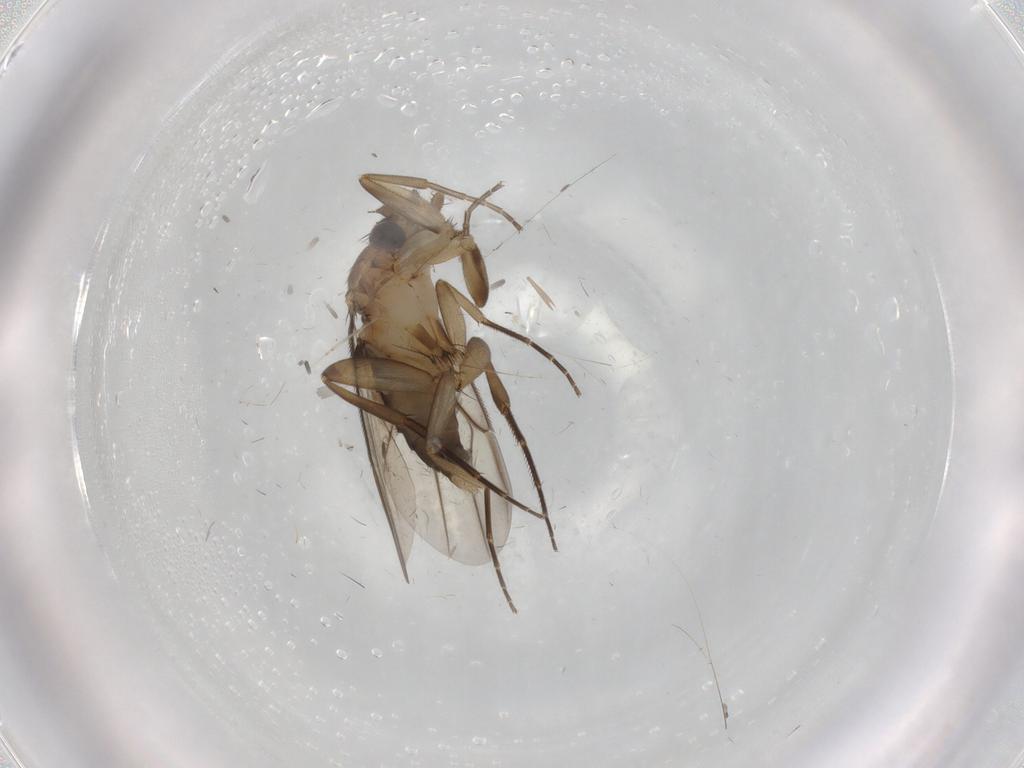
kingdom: Animalia
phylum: Arthropoda
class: Insecta
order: Diptera
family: Phoridae
